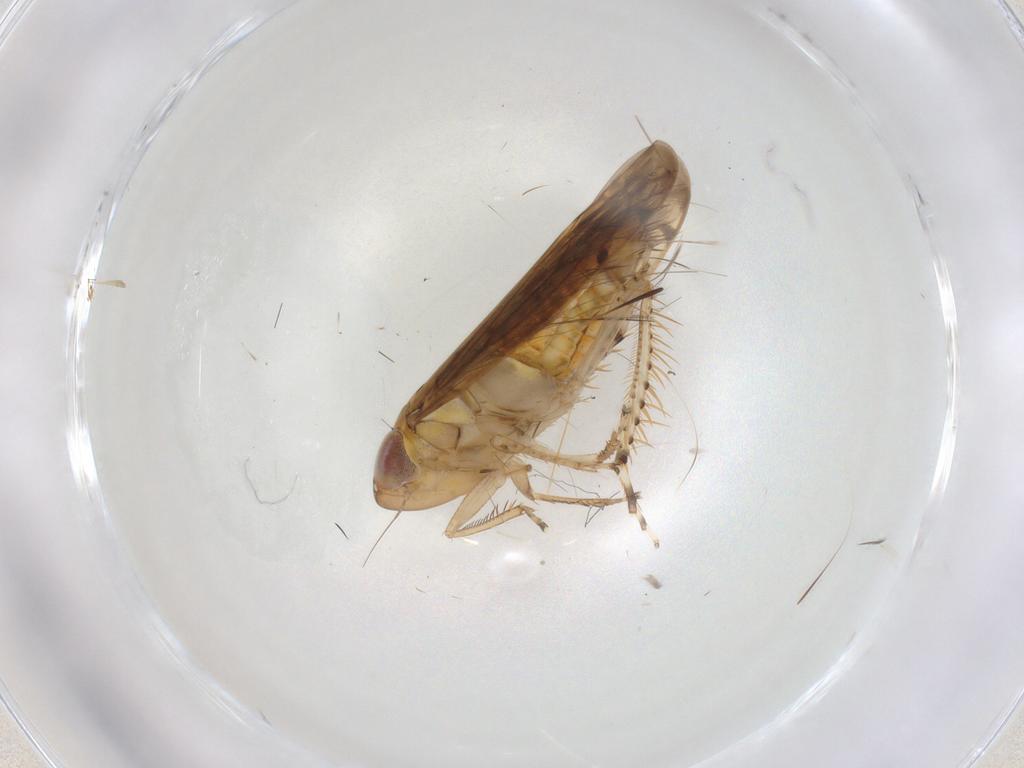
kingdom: Animalia
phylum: Arthropoda
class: Insecta
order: Hemiptera
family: Cicadellidae
